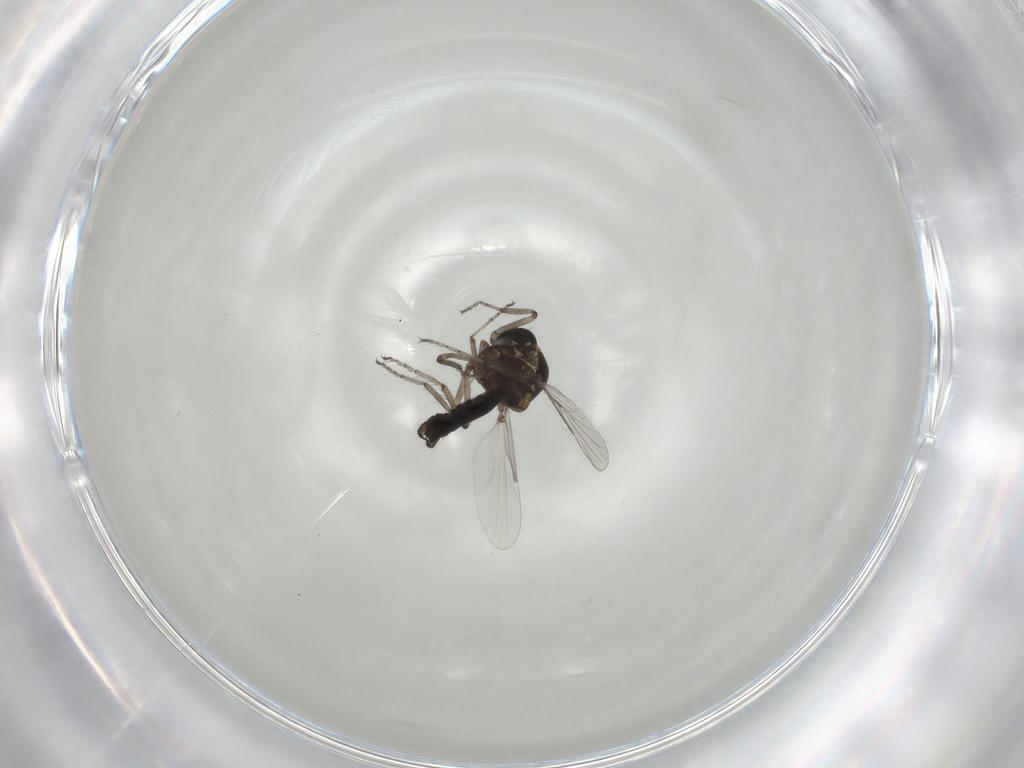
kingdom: Animalia
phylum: Arthropoda
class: Insecta
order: Diptera
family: Ceratopogonidae
